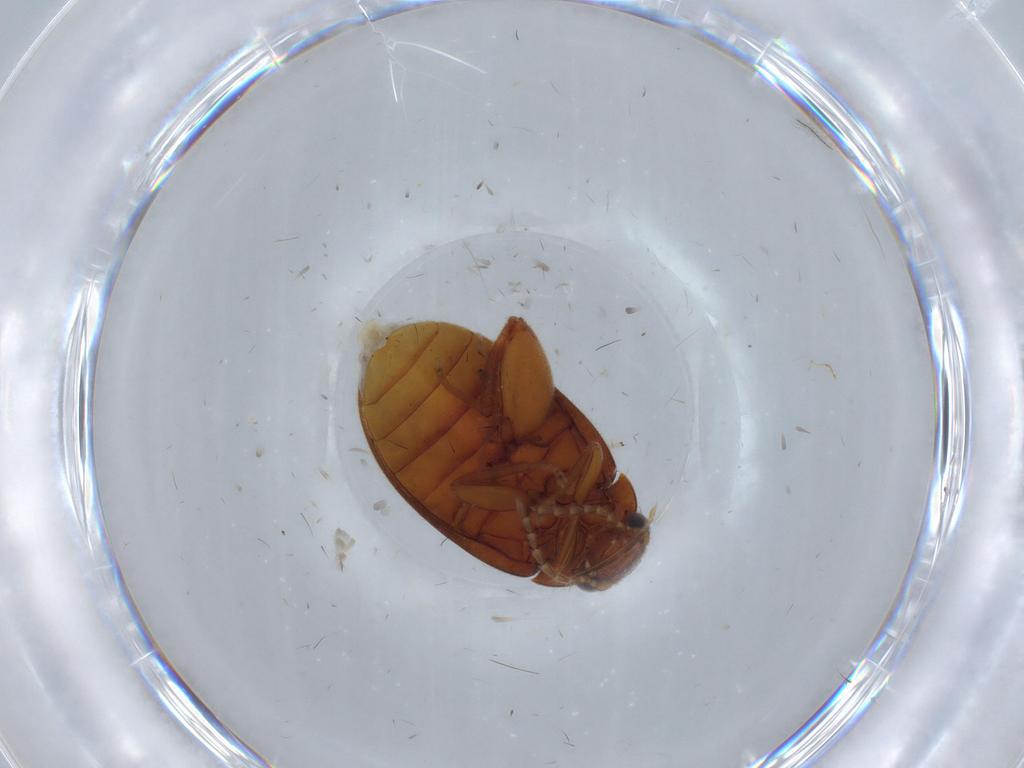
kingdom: Animalia
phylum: Arthropoda
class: Insecta
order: Coleoptera
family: Scirtidae
